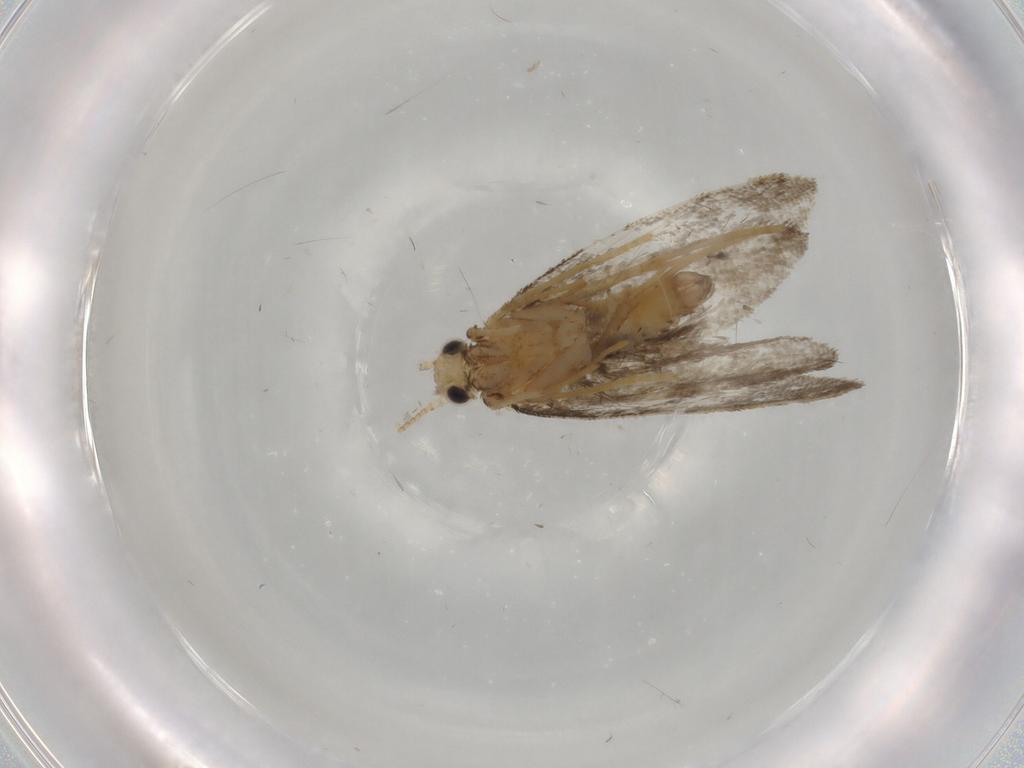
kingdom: Animalia
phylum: Arthropoda
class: Insecta
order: Lepidoptera
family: Psychidae
